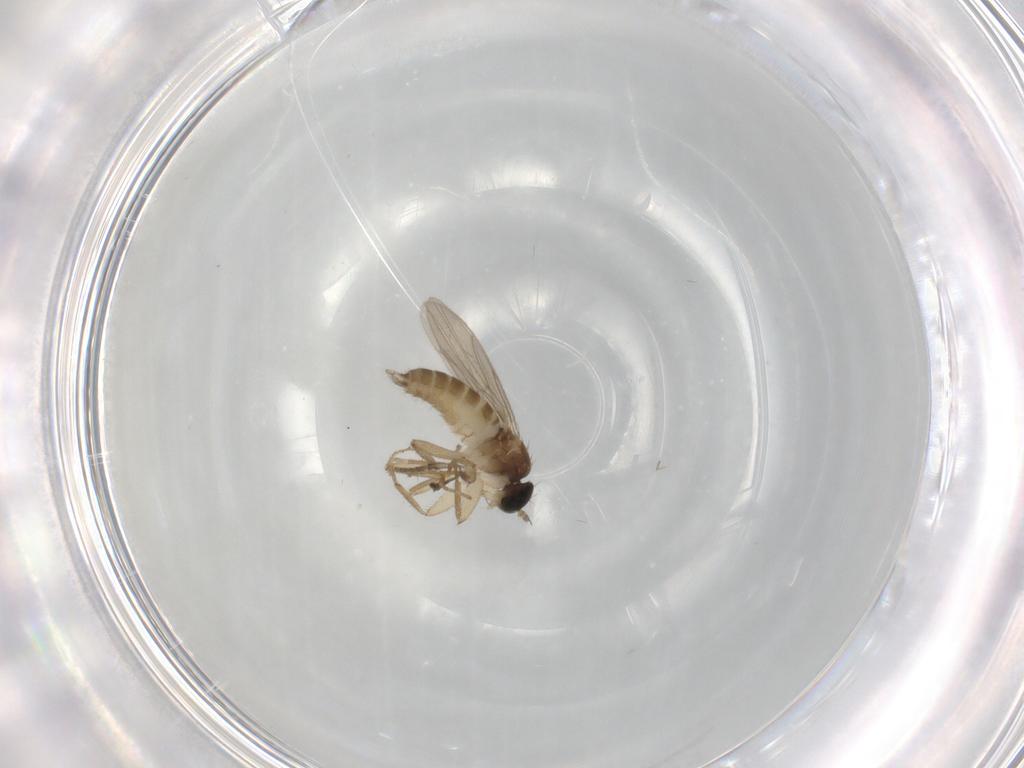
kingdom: Animalia
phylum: Arthropoda
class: Insecta
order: Diptera
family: Hybotidae
